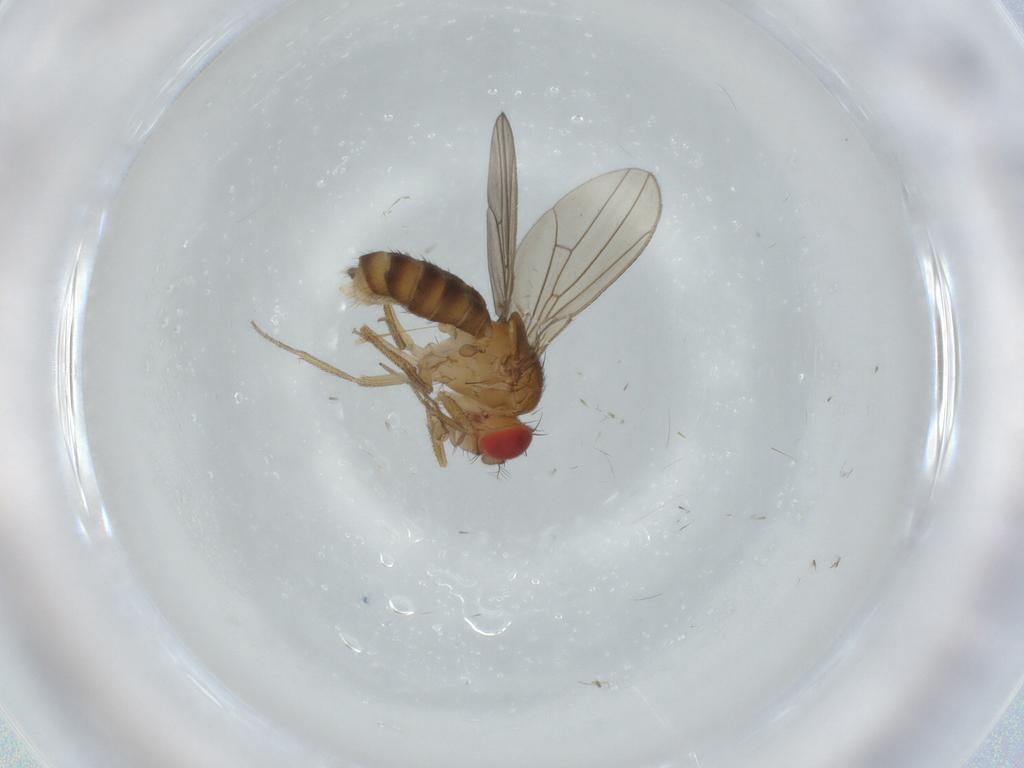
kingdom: Animalia
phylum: Arthropoda
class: Insecta
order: Diptera
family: Drosophilidae
